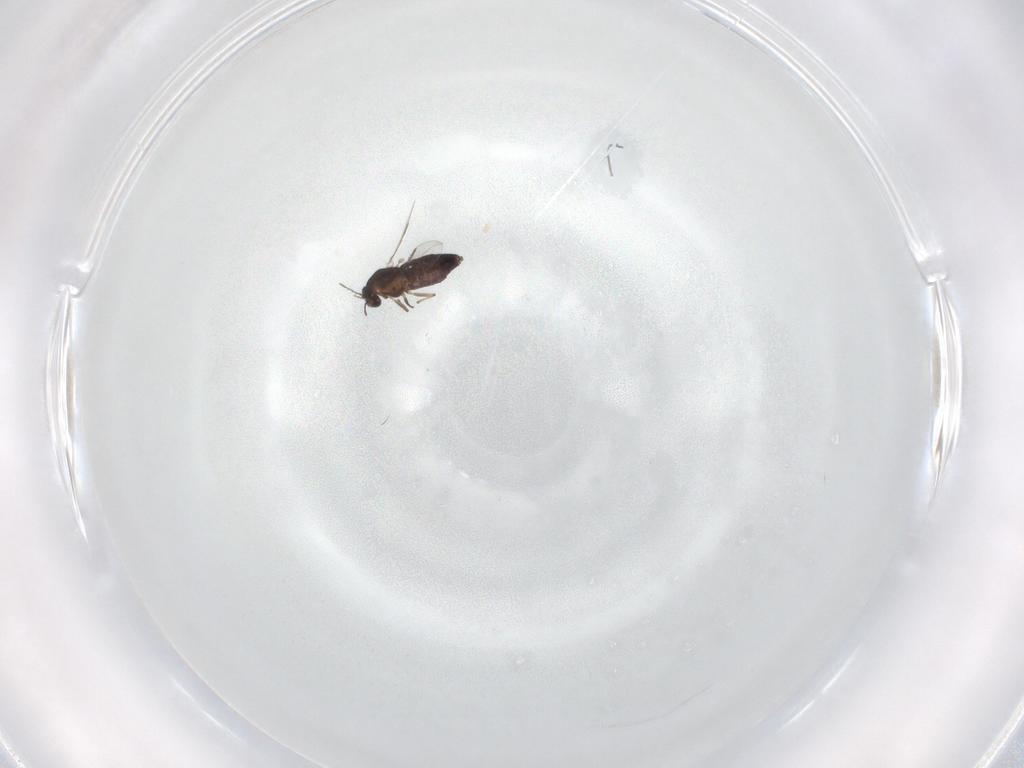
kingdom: Animalia
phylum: Arthropoda
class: Insecta
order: Diptera
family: Chironomidae
